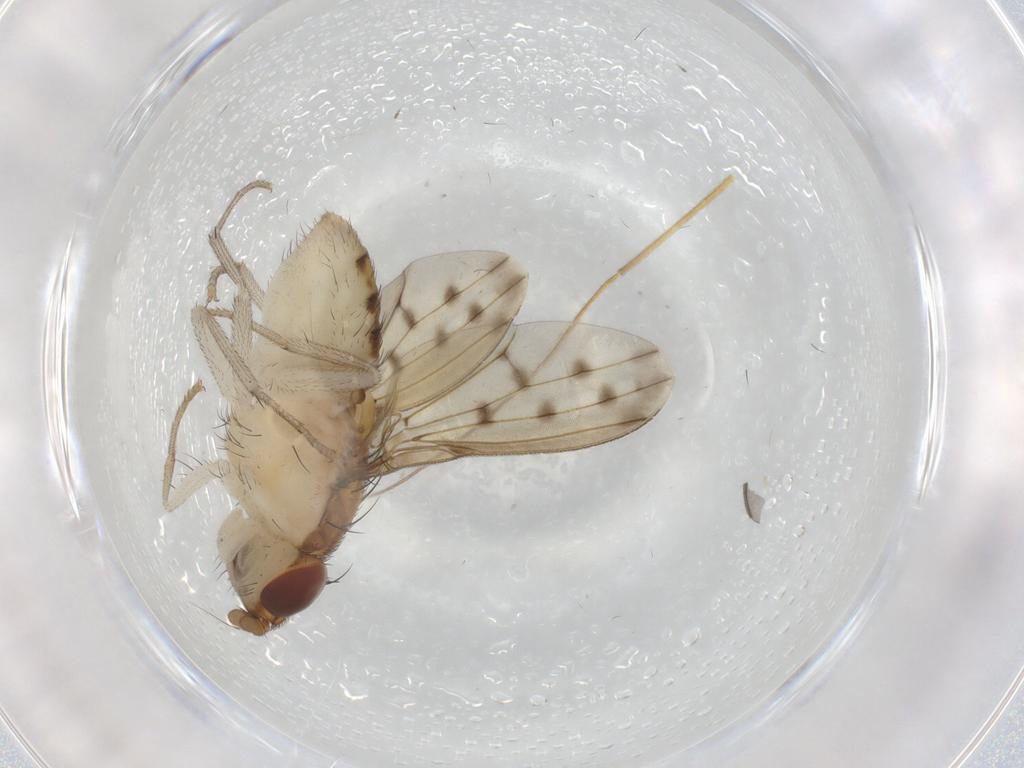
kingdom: Animalia
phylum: Arthropoda
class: Insecta
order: Diptera
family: Lauxaniidae
